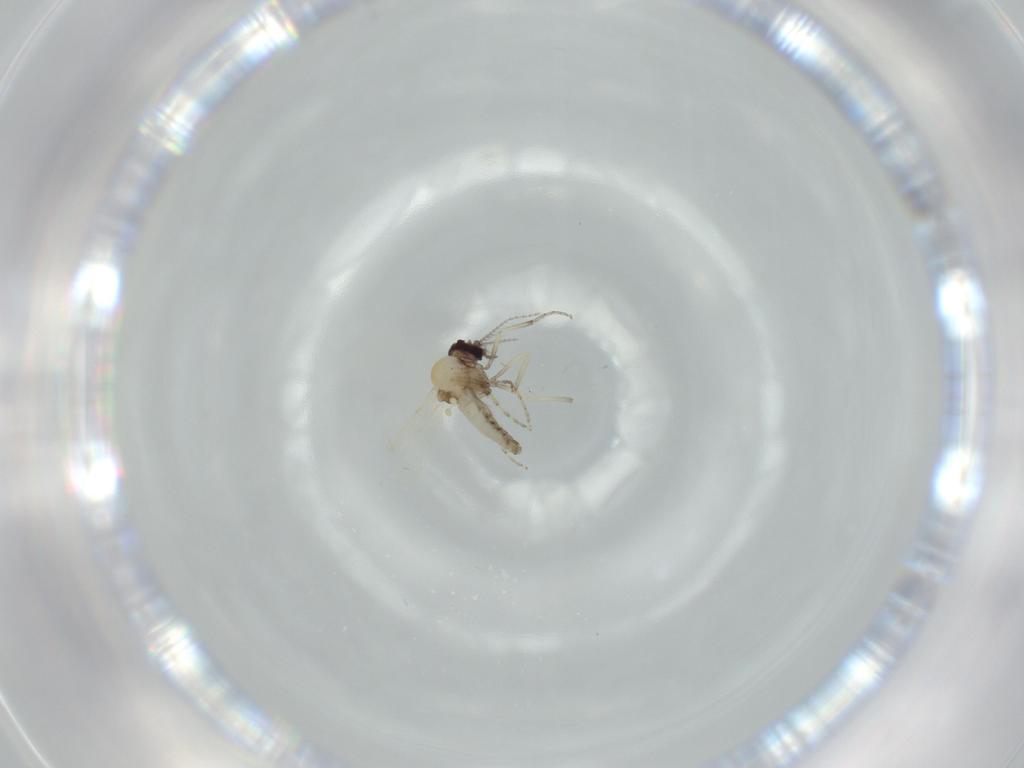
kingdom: Animalia
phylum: Arthropoda
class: Insecta
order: Diptera
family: Ceratopogonidae
